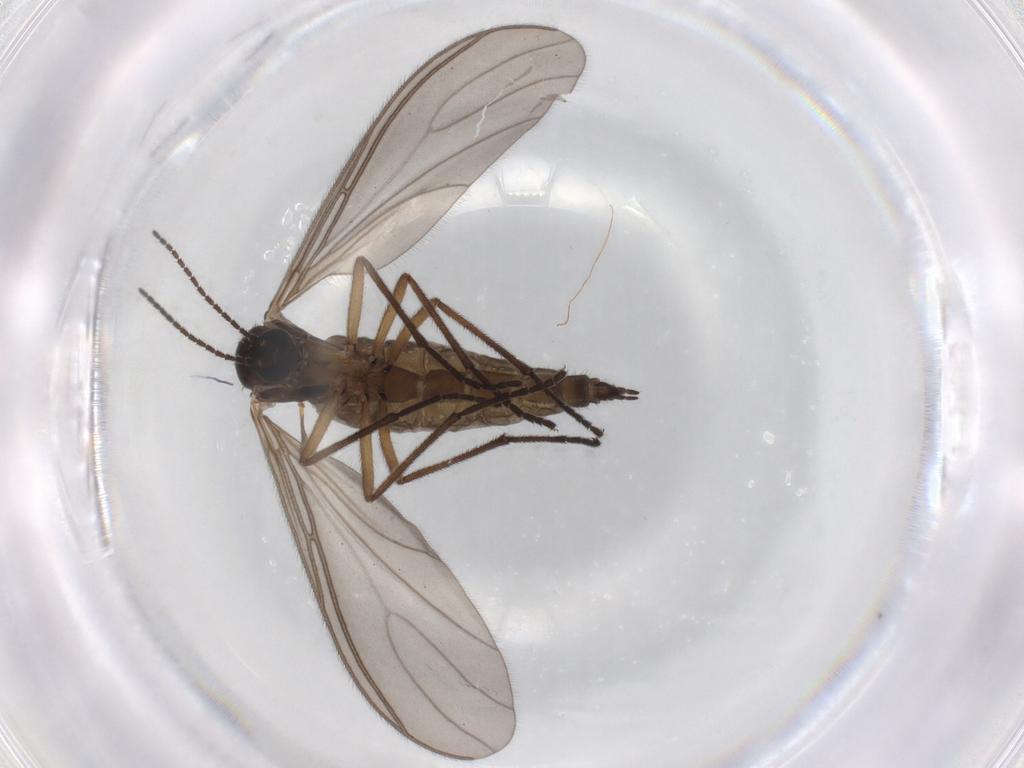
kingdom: Animalia
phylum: Arthropoda
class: Insecta
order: Diptera
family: Sciaridae
